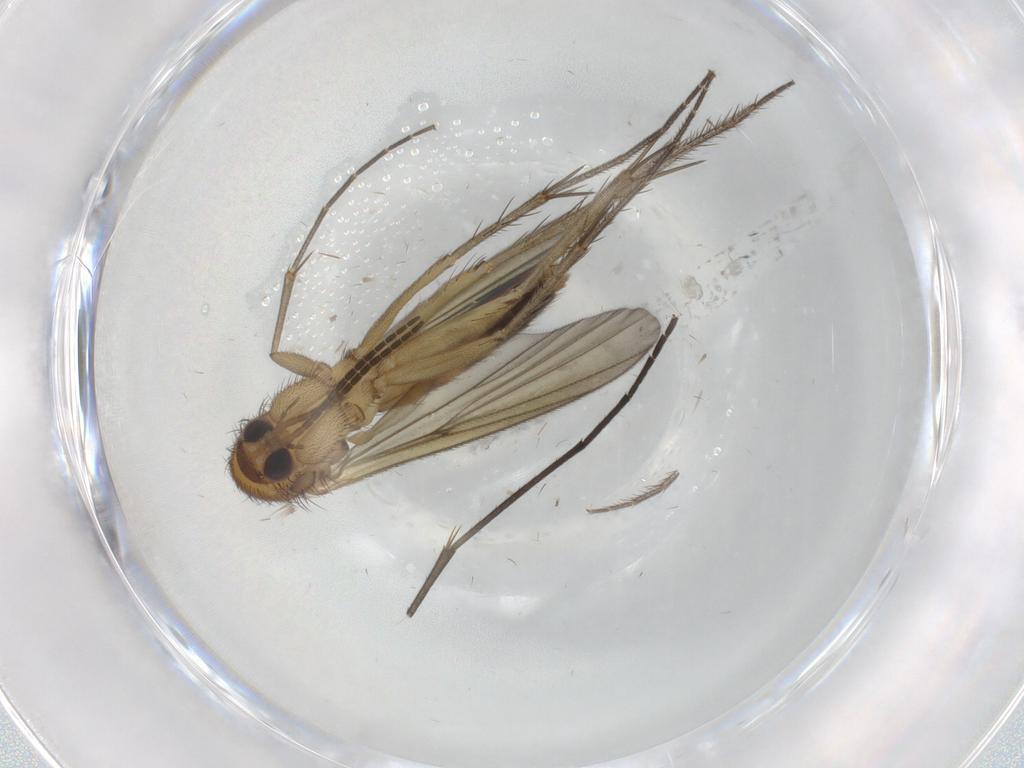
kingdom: Animalia
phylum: Arthropoda
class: Insecta
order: Diptera
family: Mycetophilidae
